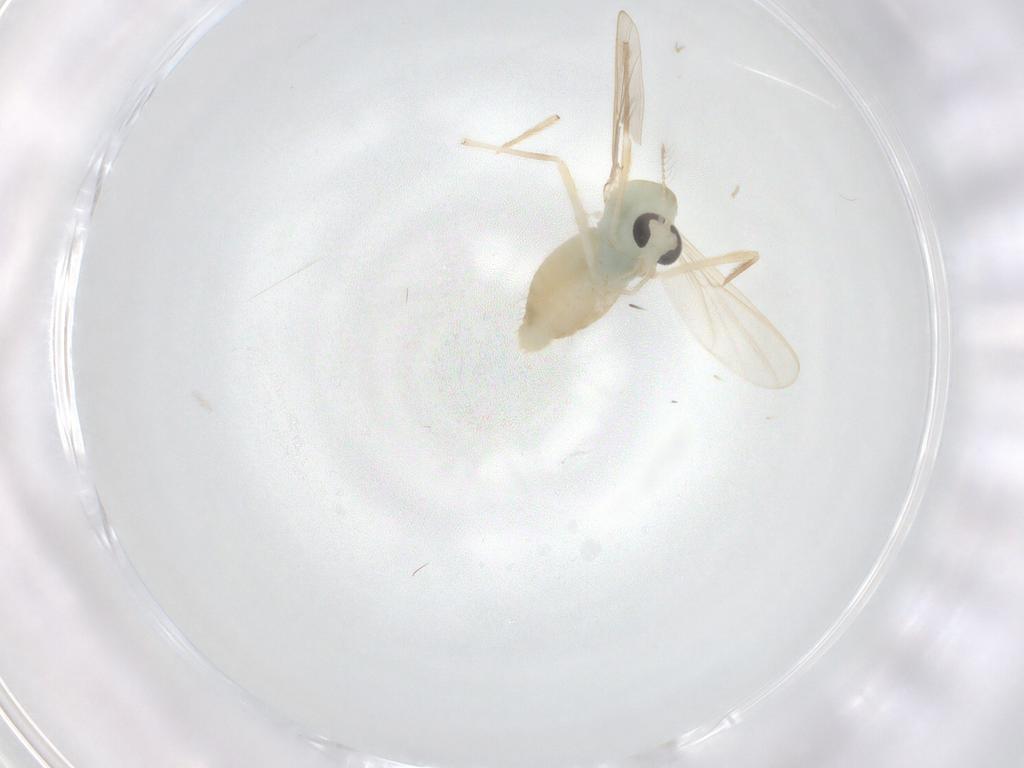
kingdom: Animalia
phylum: Arthropoda
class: Insecta
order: Diptera
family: Chironomidae
